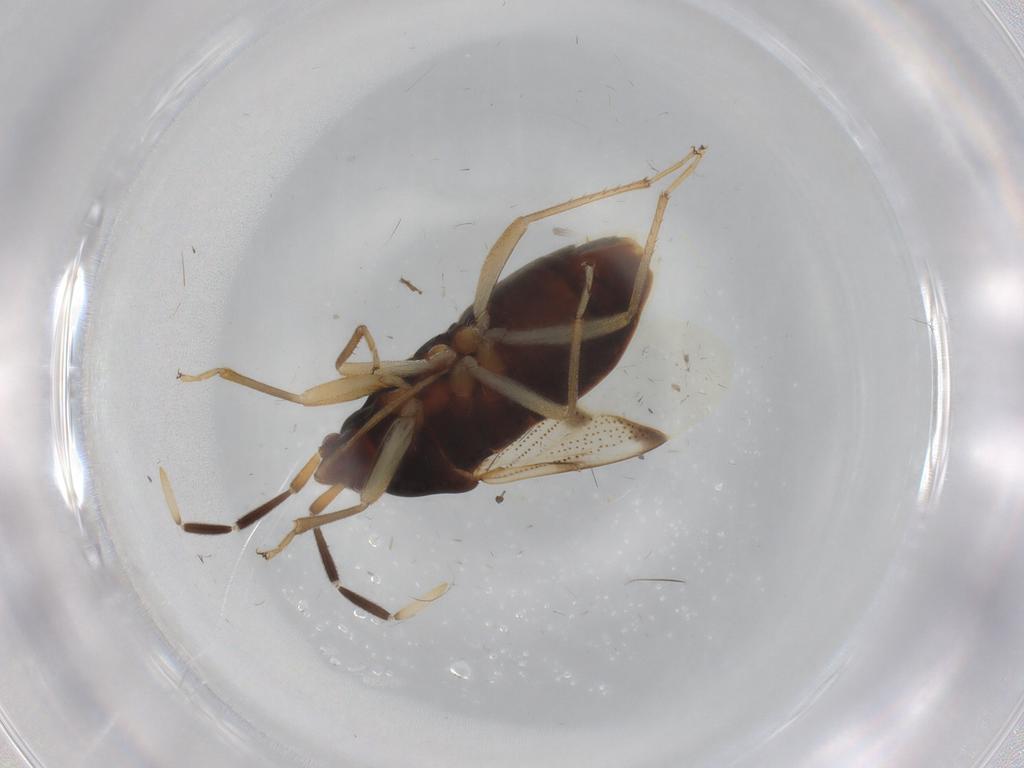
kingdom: Animalia
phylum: Arthropoda
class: Insecta
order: Hemiptera
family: Rhyparochromidae
